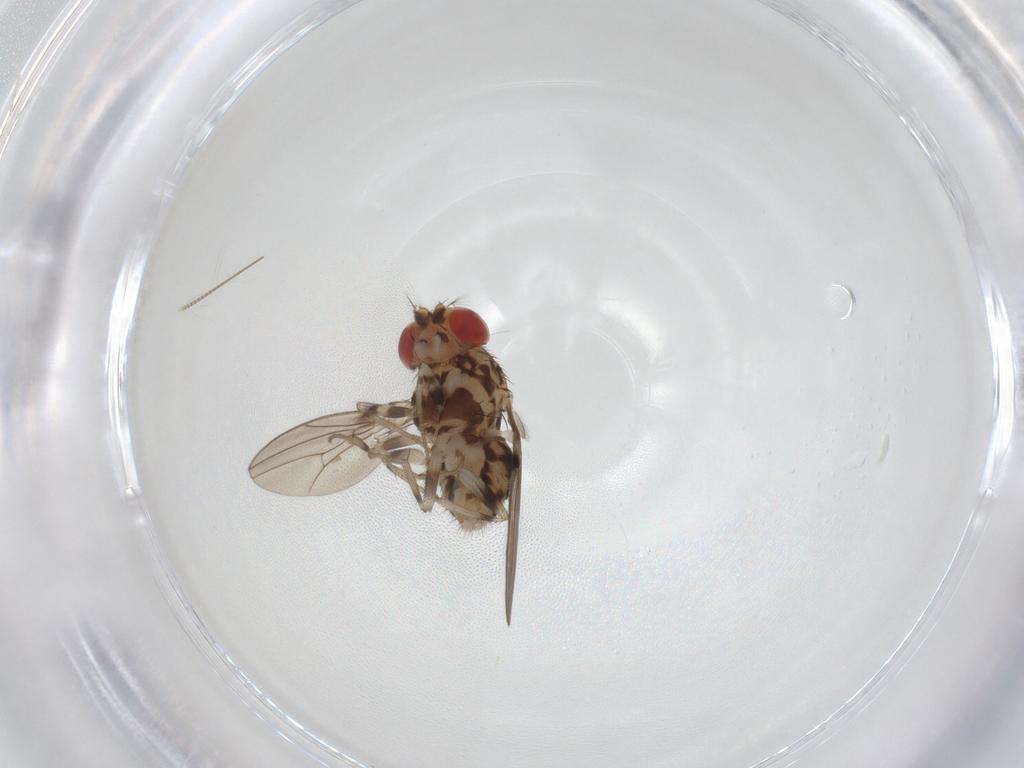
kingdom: Animalia
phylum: Arthropoda
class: Insecta
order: Diptera
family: Drosophilidae
